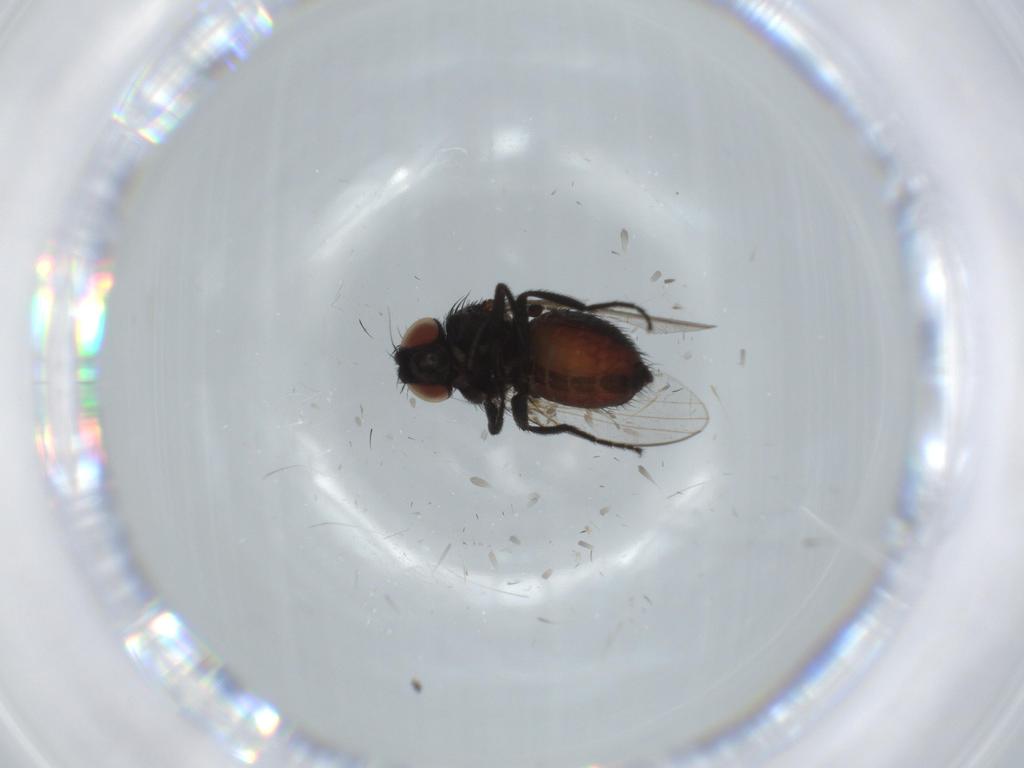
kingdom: Animalia
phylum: Arthropoda
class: Insecta
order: Diptera
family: Milichiidae
